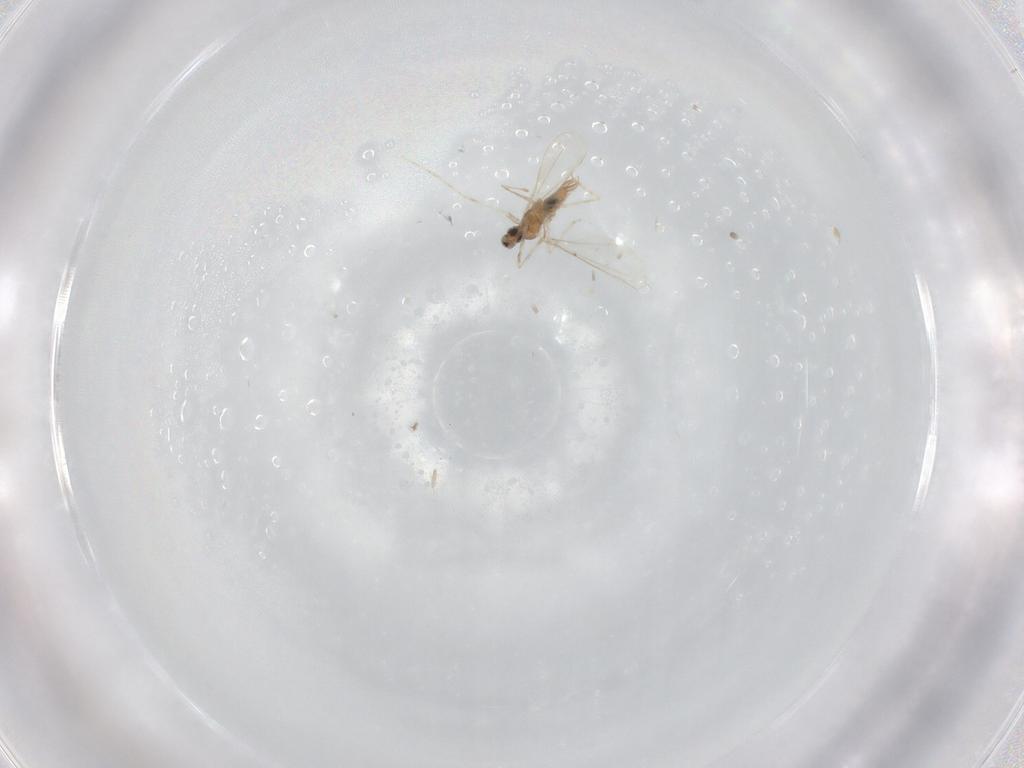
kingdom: Animalia
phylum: Arthropoda
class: Insecta
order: Diptera
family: Cecidomyiidae
